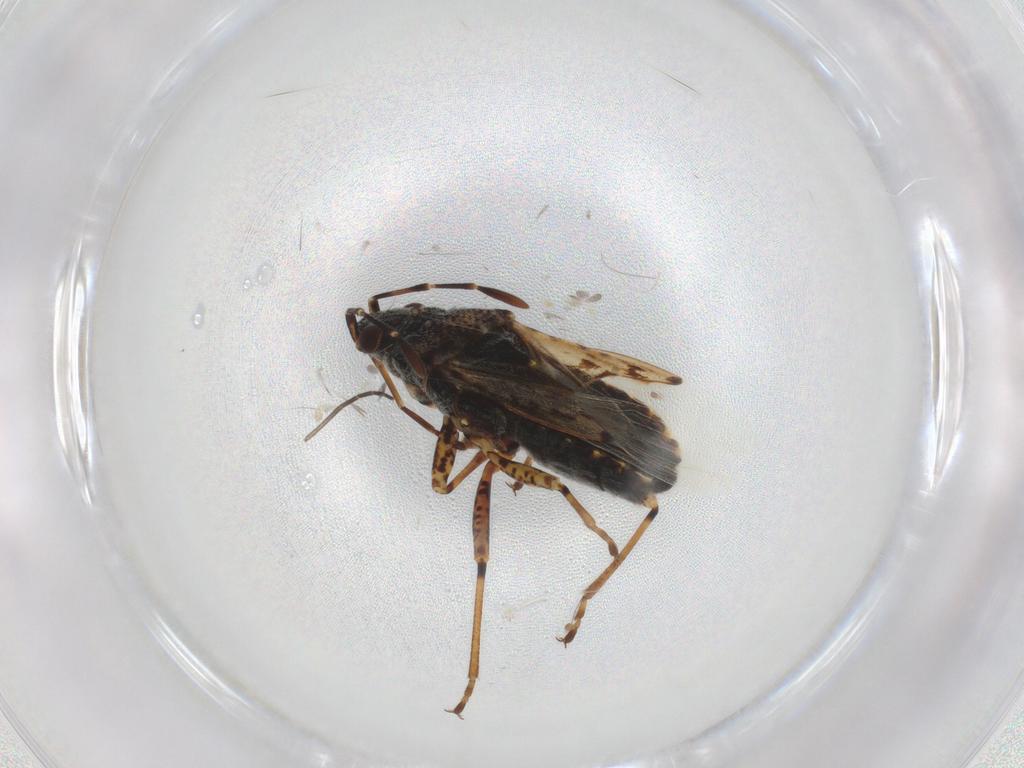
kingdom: Animalia
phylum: Arthropoda
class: Insecta
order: Hemiptera
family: Lygaeidae
